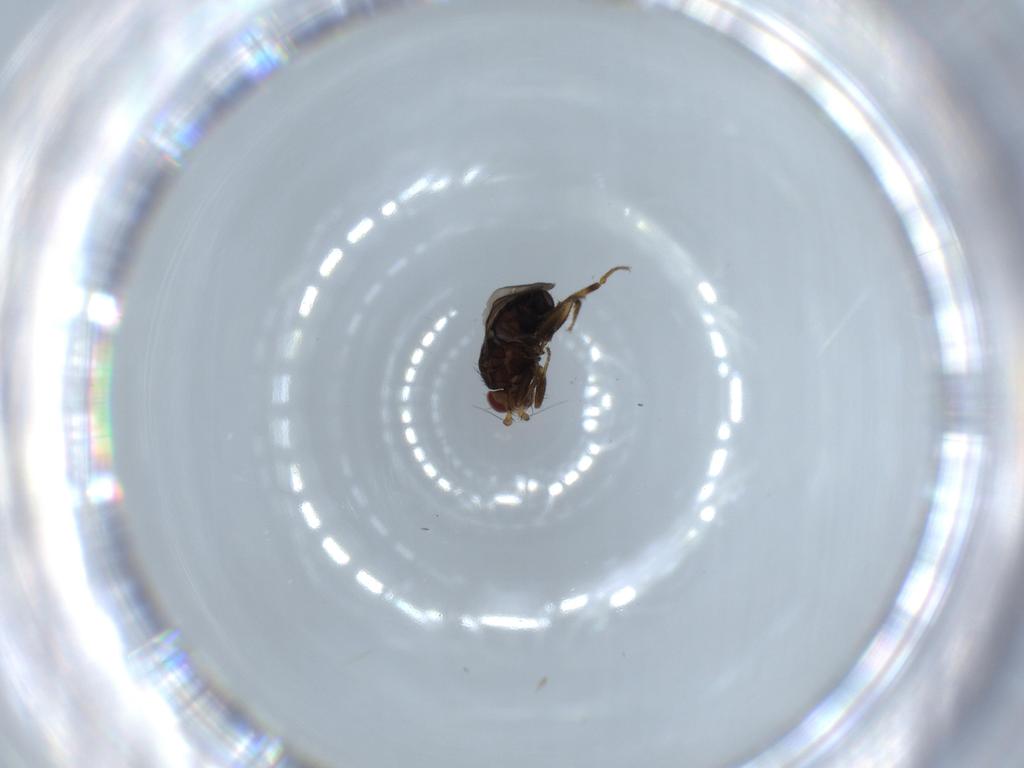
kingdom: Animalia
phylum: Arthropoda
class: Insecta
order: Diptera
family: Sphaeroceridae
